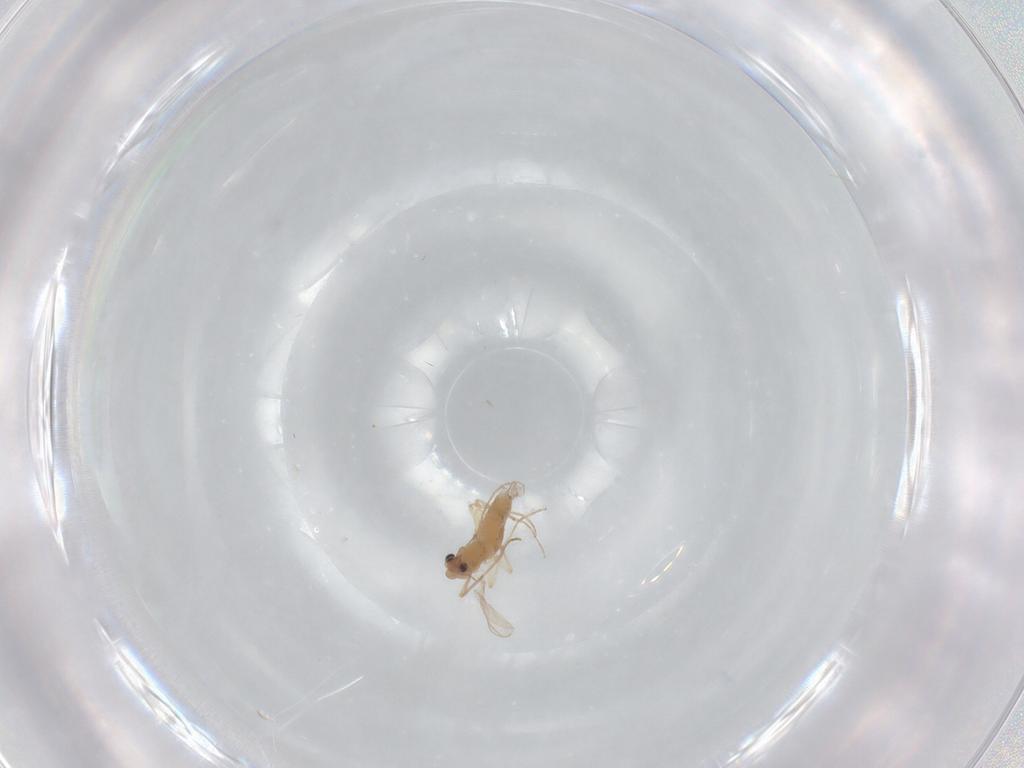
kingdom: Animalia
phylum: Arthropoda
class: Insecta
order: Diptera
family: Chironomidae
